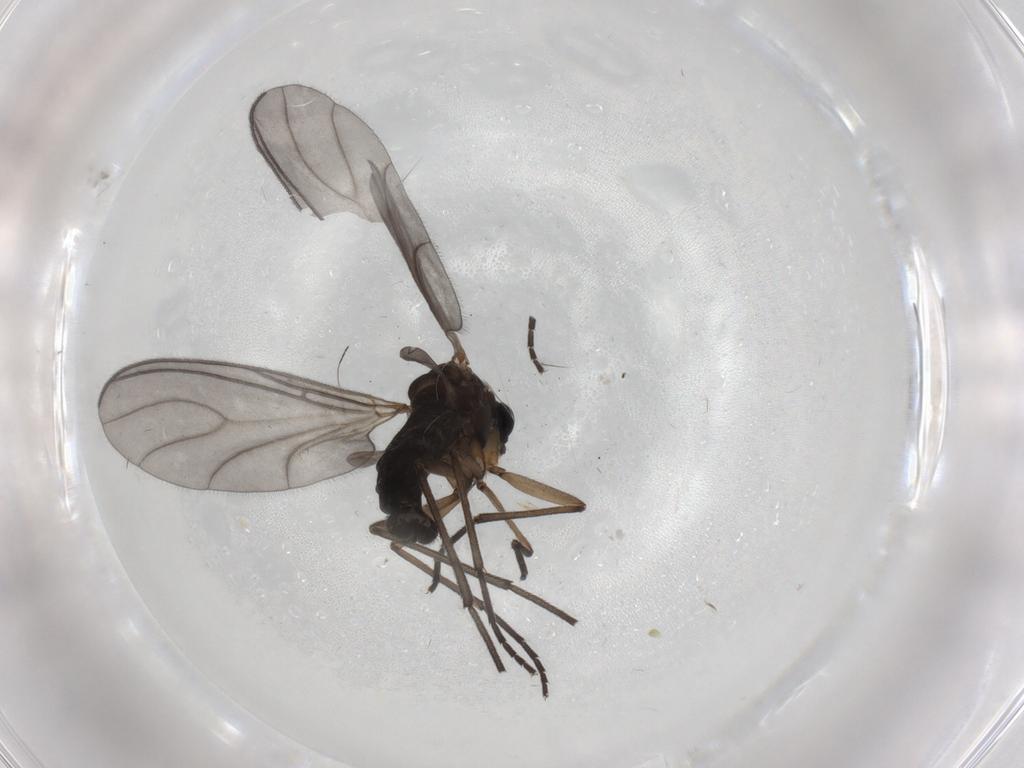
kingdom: Animalia
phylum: Arthropoda
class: Insecta
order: Diptera
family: Sciaridae
